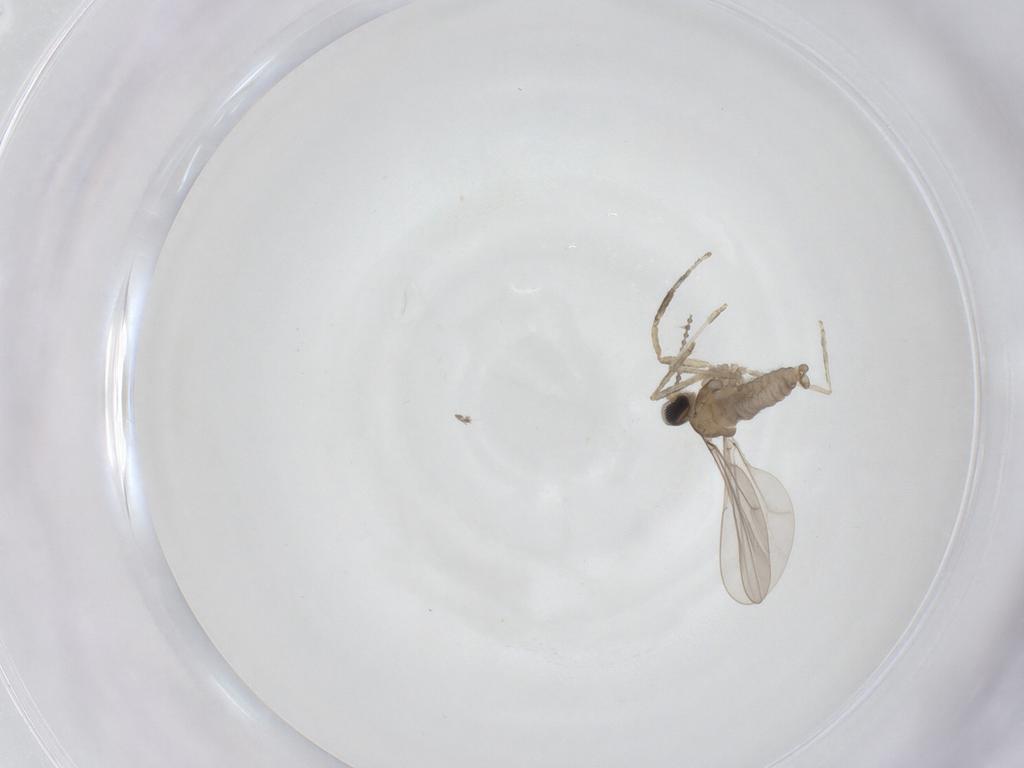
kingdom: Animalia
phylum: Arthropoda
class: Insecta
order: Diptera
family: Cecidomyiidae
